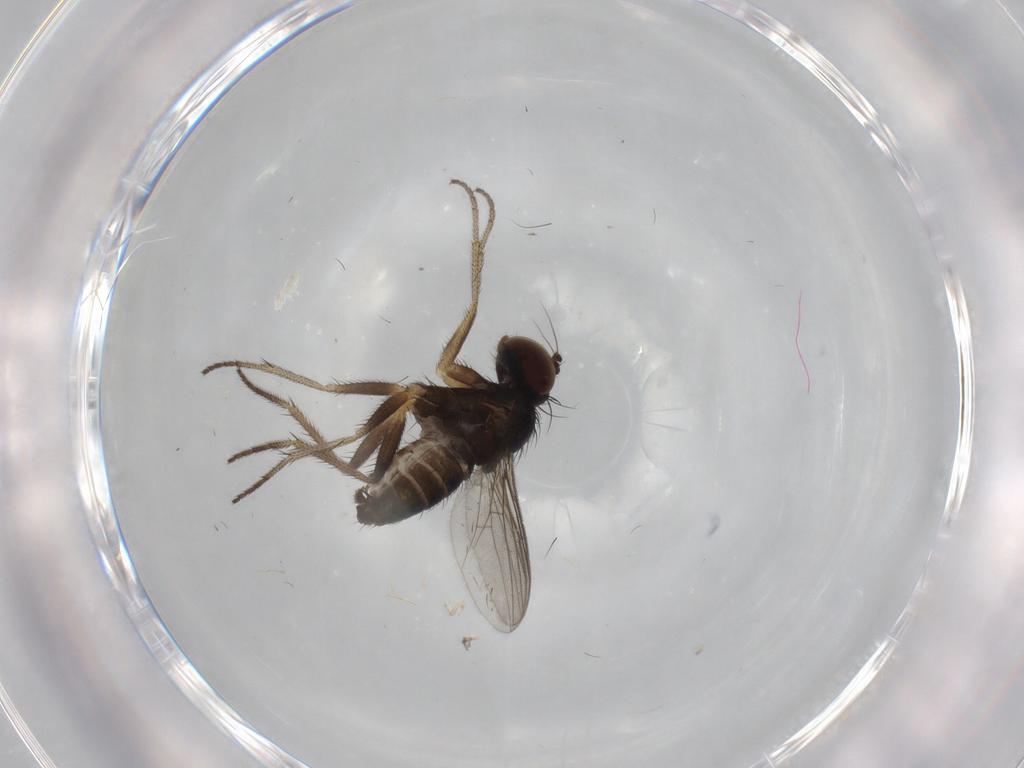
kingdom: Animalia
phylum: Arthropoda
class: Insecta
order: Diptera
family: Dolichopodidae
